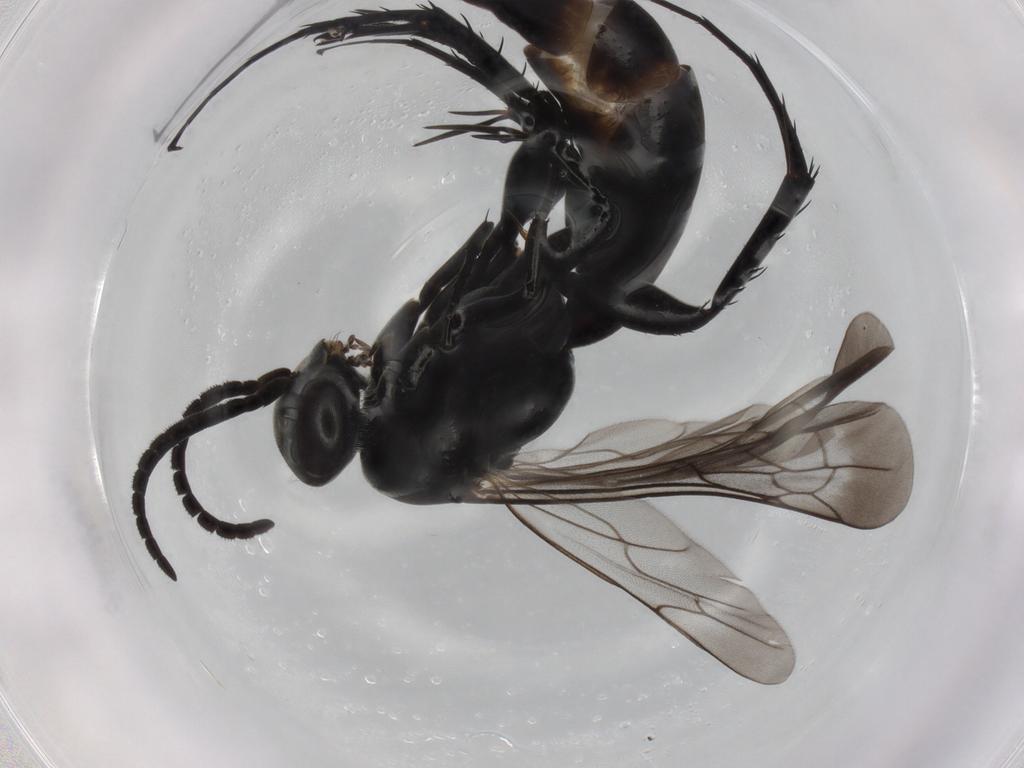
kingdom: Animalia
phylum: Arthropoda
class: Insecta
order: Hymenoptera
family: Pompilidae
